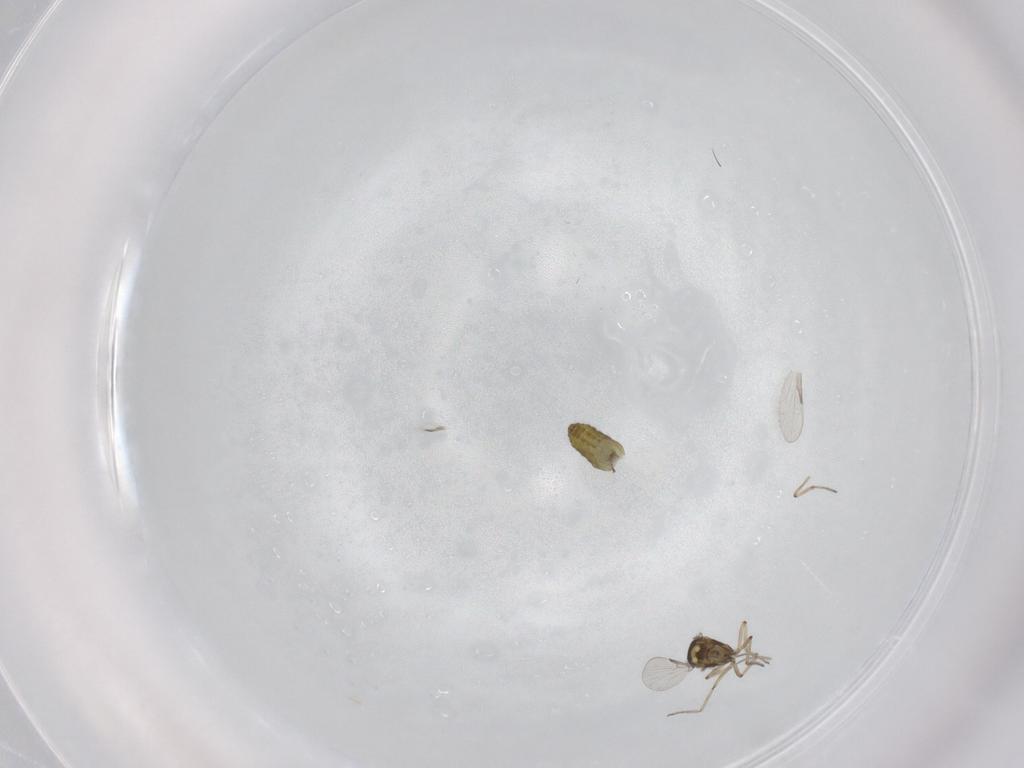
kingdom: Animalia
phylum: Arthropoda
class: Insecta
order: Diptera
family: Ceratopogonidae
